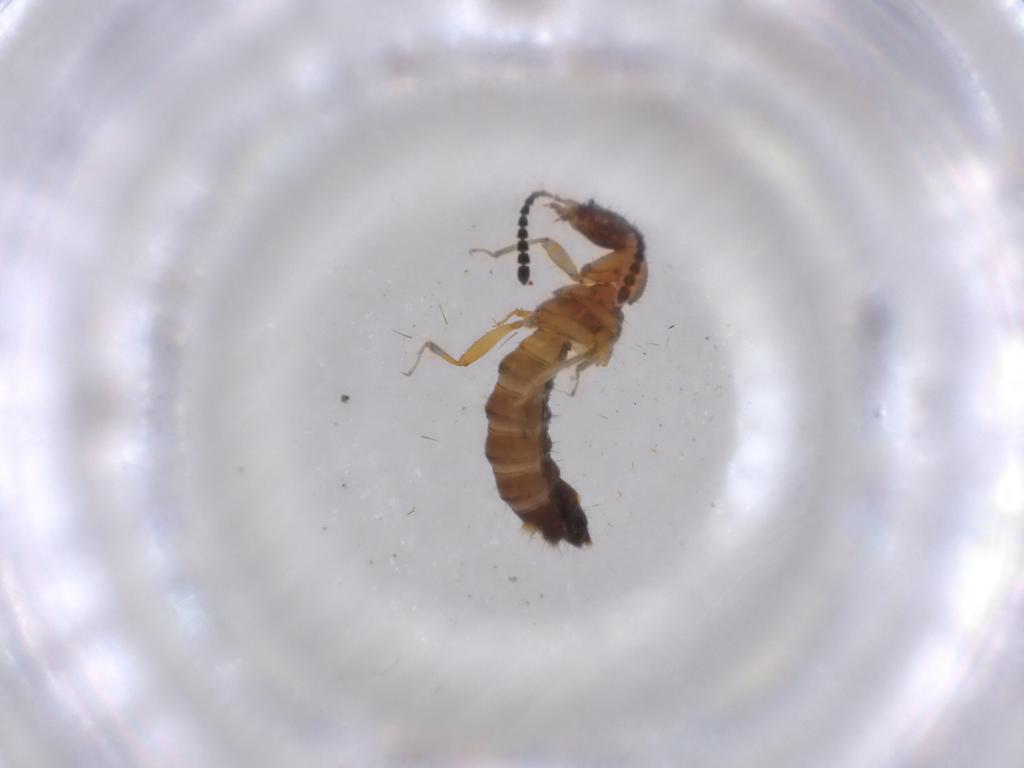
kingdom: Animalia
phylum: Arthropoda
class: Insecta
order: Coleoptera
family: Staphylinidae
